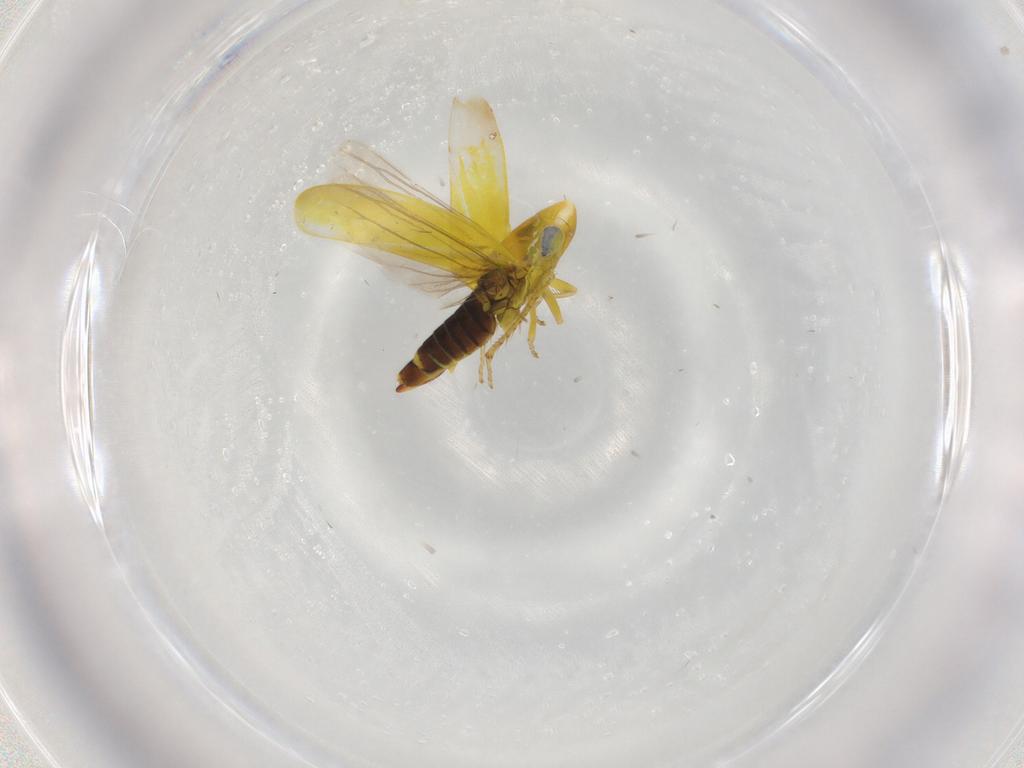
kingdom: Animalia
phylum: Arthropoda
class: Insecta
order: Hemiptera
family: Cicadellidae
